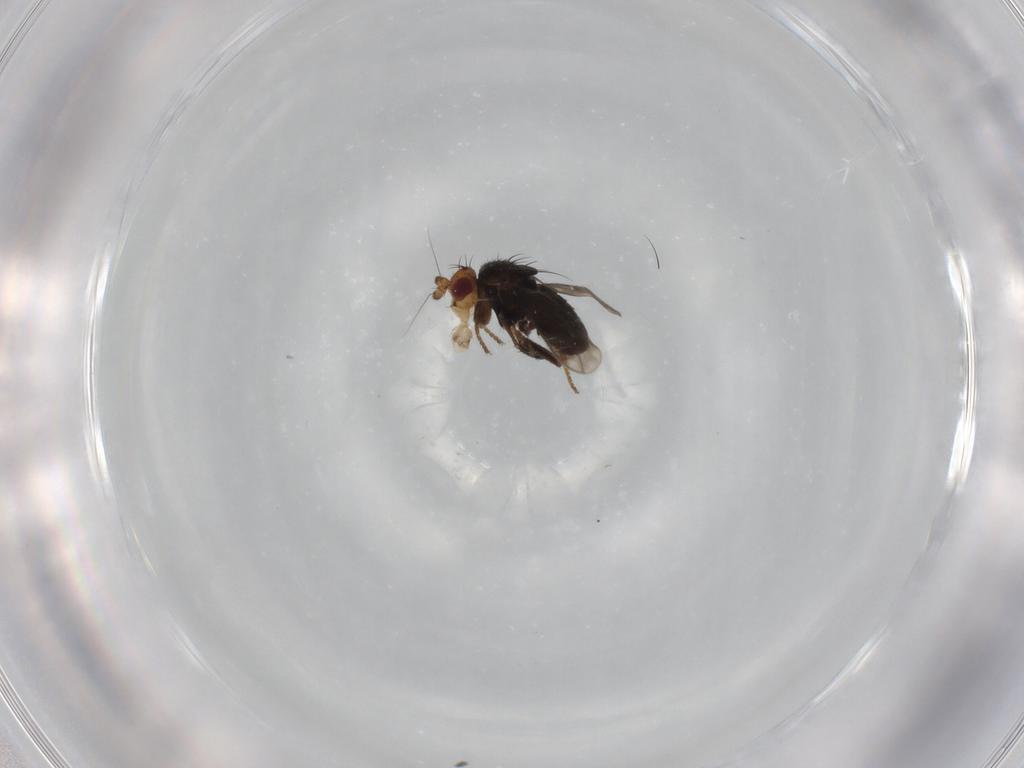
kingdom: Animalia
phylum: Arthropoda
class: Insecta
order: Diptera
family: Sphaeroceridae
